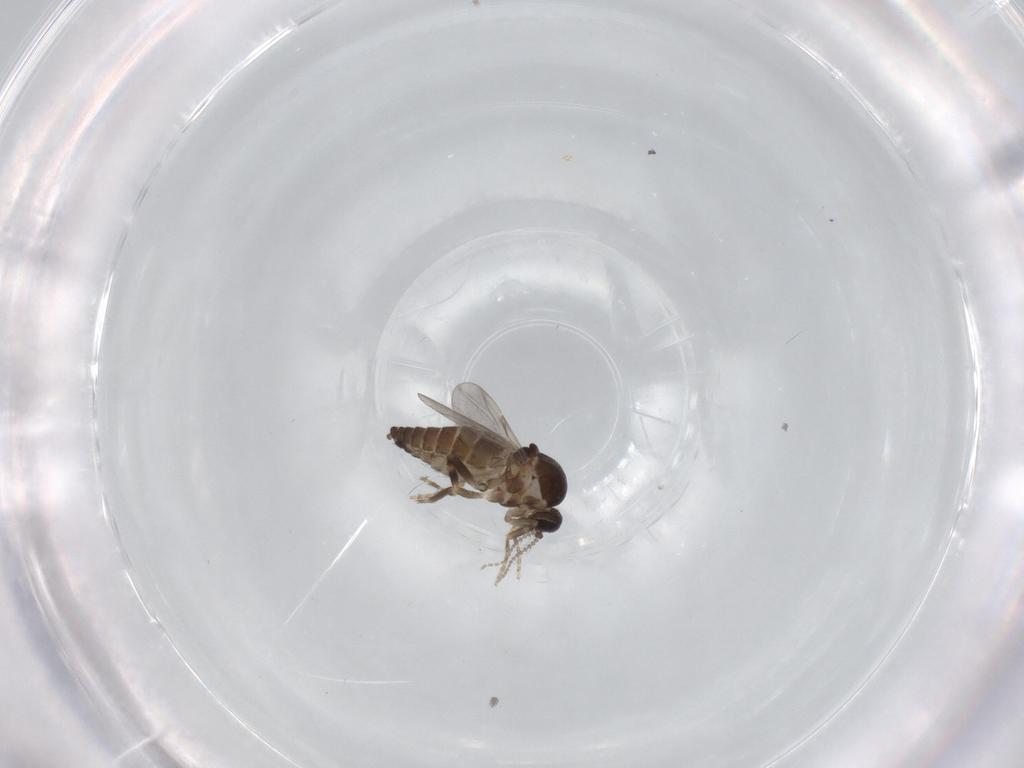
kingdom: Animalia
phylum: Arthropoda
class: Insecta
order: Diptera
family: Ceratopogonidae
